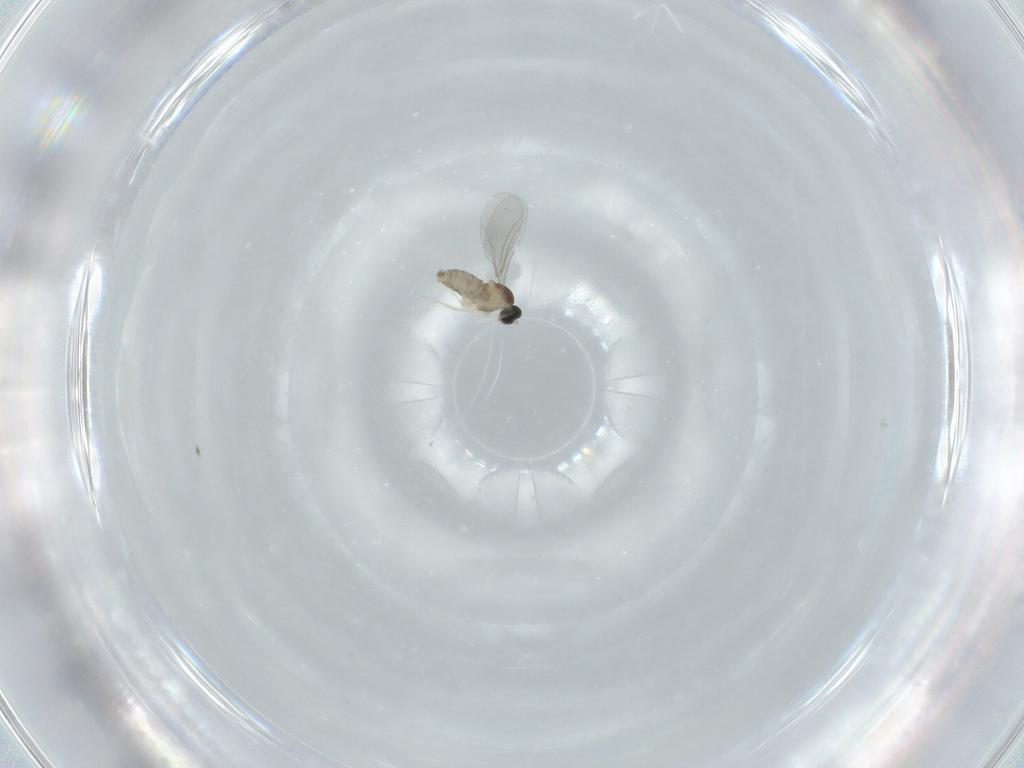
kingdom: Animalia
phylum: Arthropoda
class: Insecta
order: Diptera
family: Cecidomyiidae
